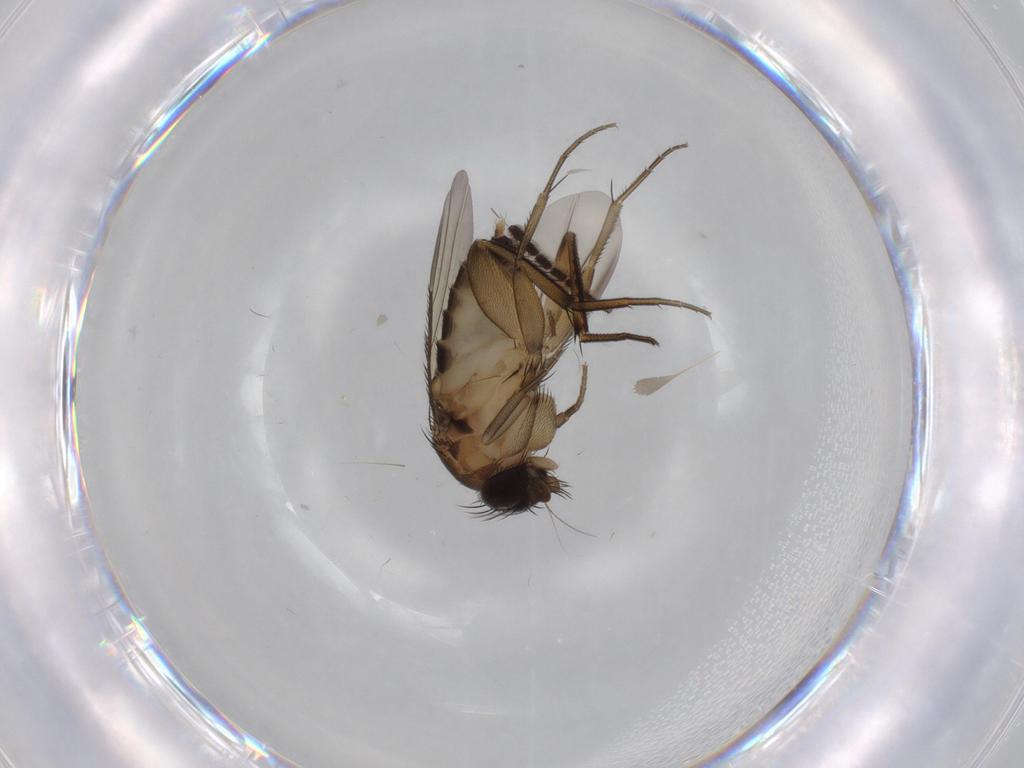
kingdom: Animalia
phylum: Arthropoda
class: Insecta
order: Diptera
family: Phoridae
